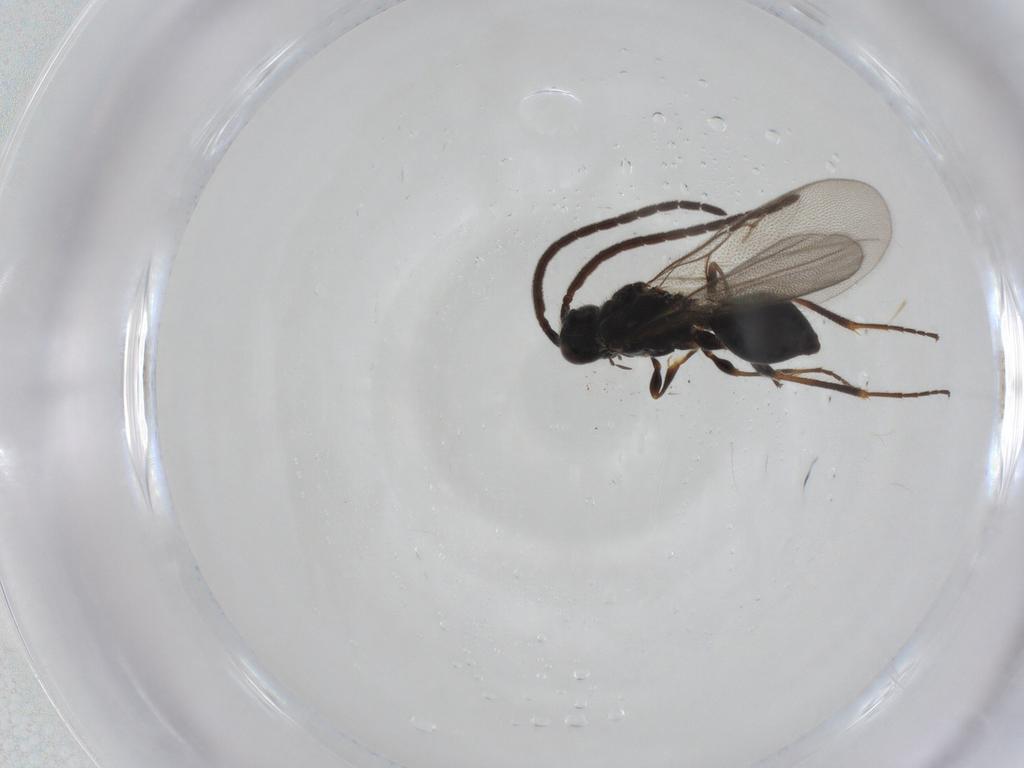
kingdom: Animalia
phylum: Arthropoda
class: Insecta
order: Hymenoptera
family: Diapriidae
